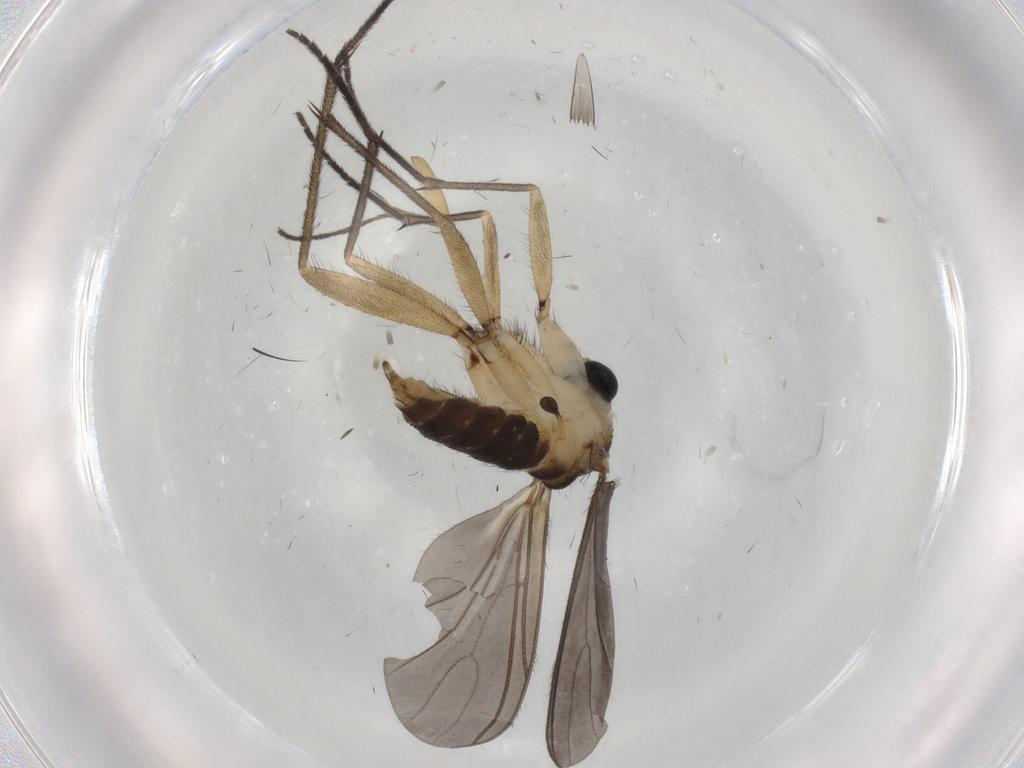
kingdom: Animalia
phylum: Arthropoda
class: Insecta
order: Diptera
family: Sciaridae
